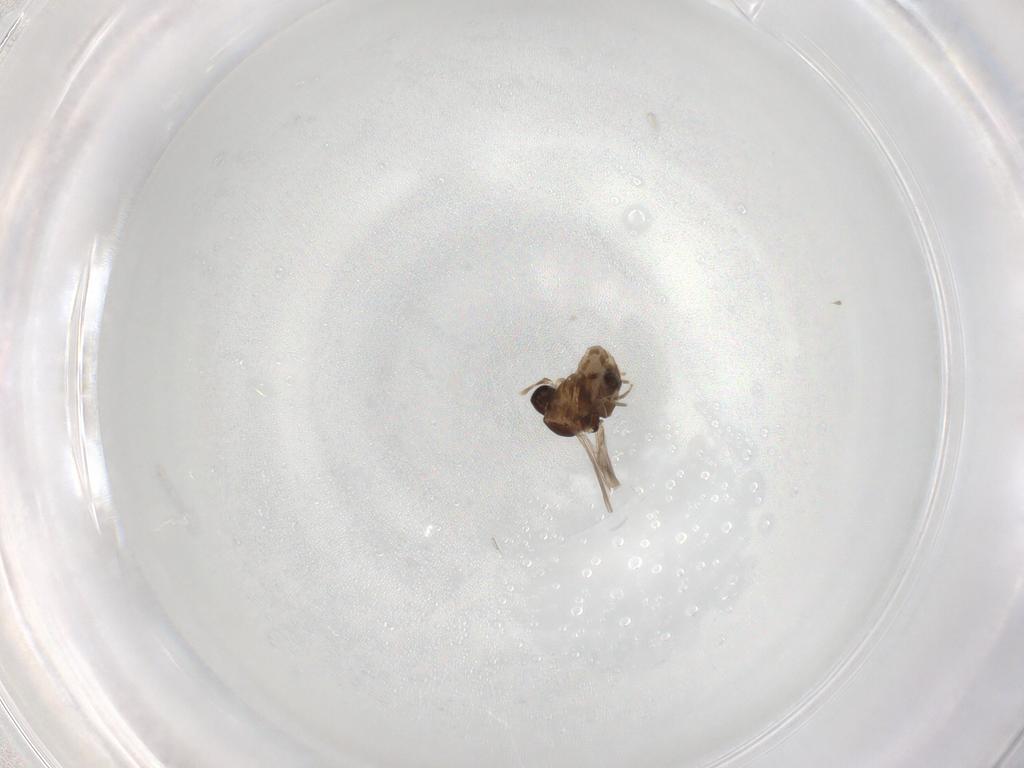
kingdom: Animalia
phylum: Arthropoda
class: Insecta
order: Diptera
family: Ceratopogonidae
